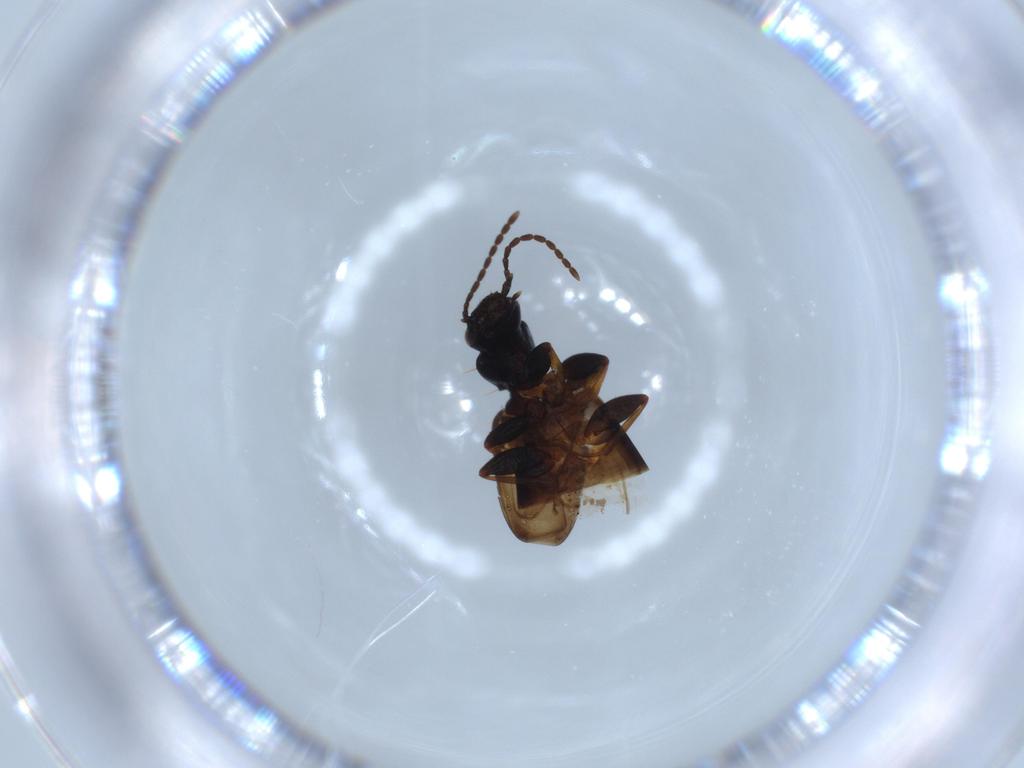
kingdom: Animalia
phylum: Arthropoda
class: Insecta
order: Coleoptera
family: Carabidae
